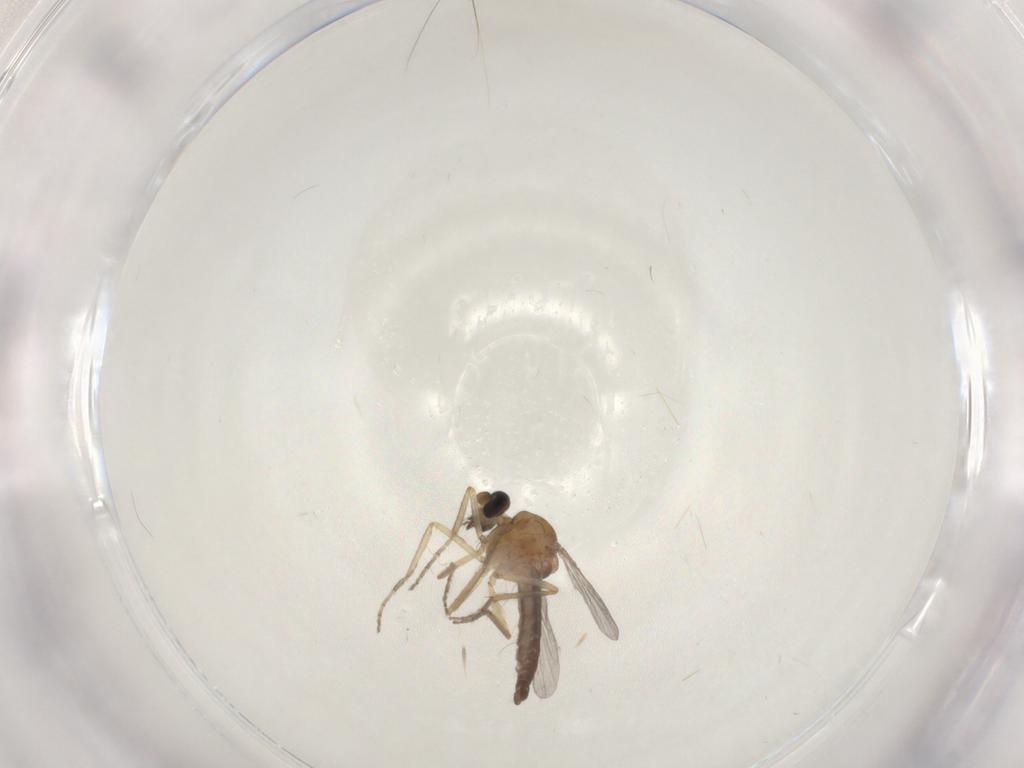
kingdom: Animalia
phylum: Arthropoda
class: Insecta
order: Diptera
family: Ceratopogonidae
